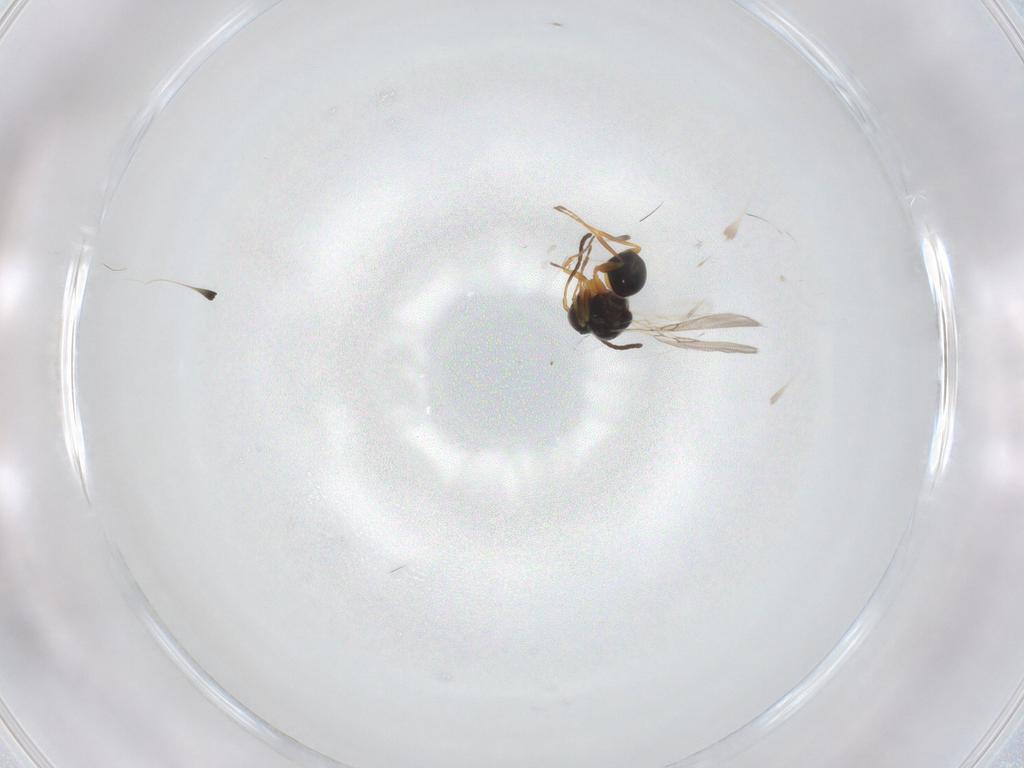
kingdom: Animalia
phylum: Arthropoda
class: Insecta
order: Hymenoptera
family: Figitidae
